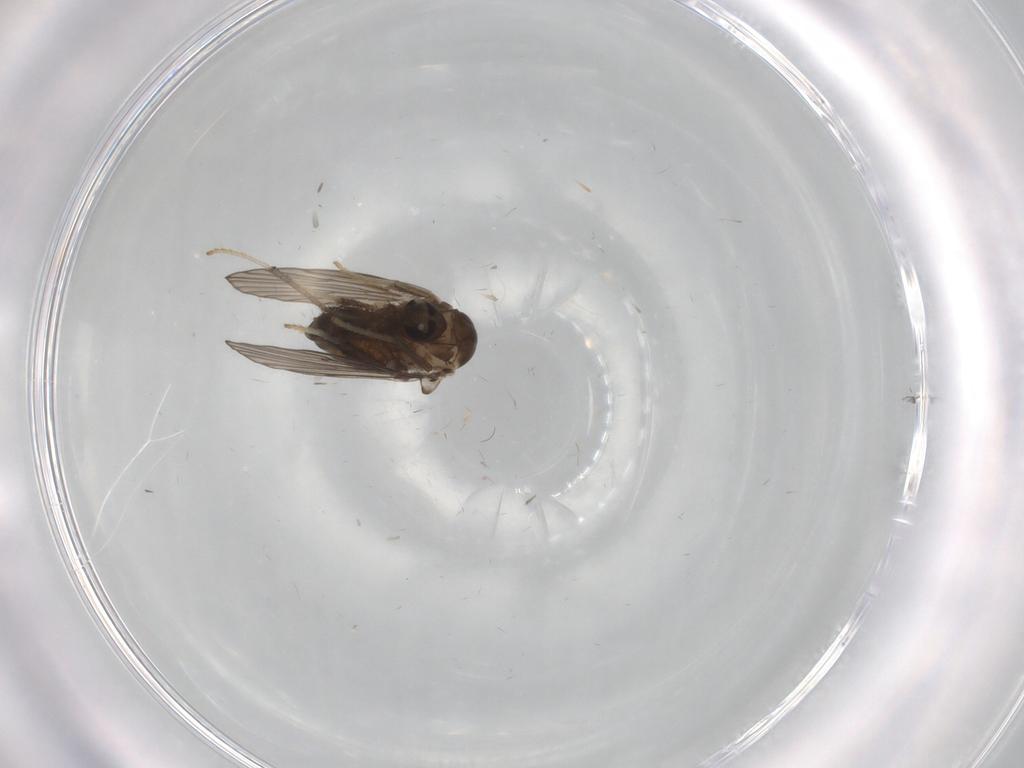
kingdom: Animalia
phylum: Arthropoda
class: Insecta
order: Diptera
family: Psychodidae
